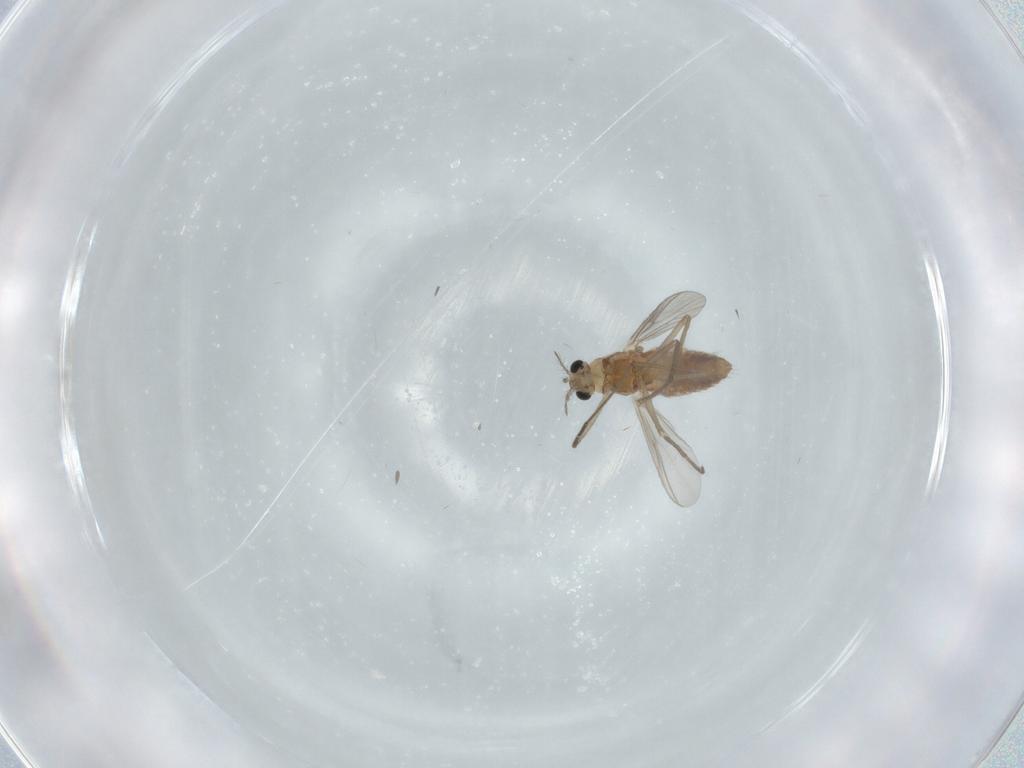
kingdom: Animalia
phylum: Arthropoda
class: Insecta
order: Diptera
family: Chironomidae
